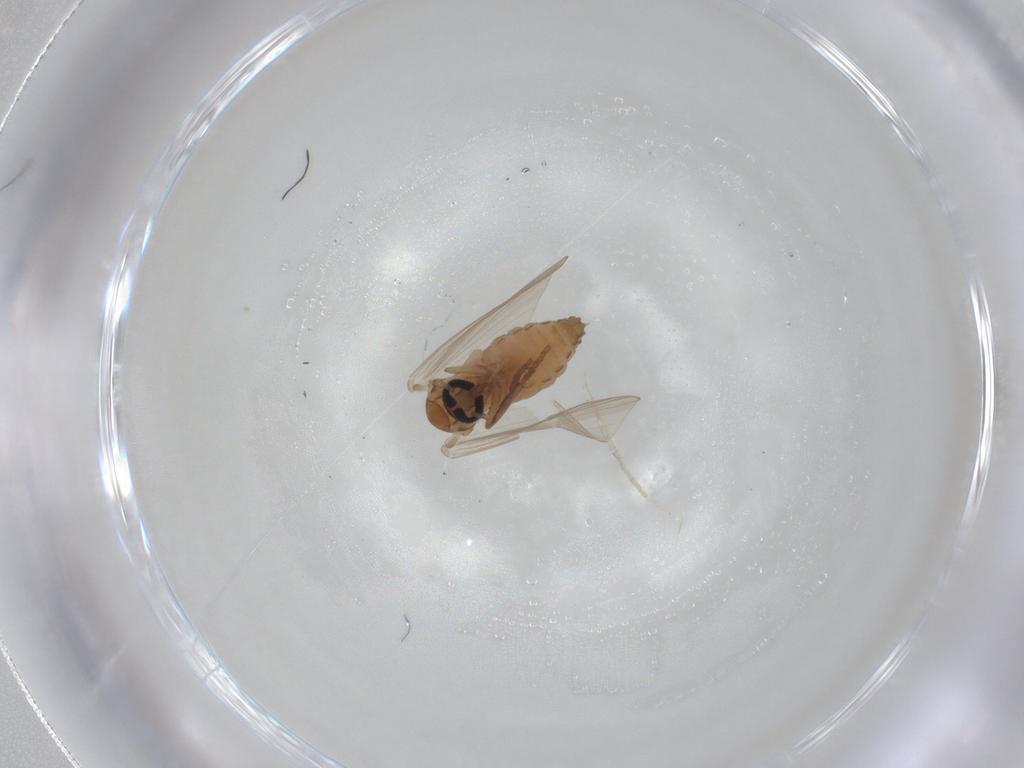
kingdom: Animalia
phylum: Arthropoda
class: Insecta
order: Diptera
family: Psychodidae
